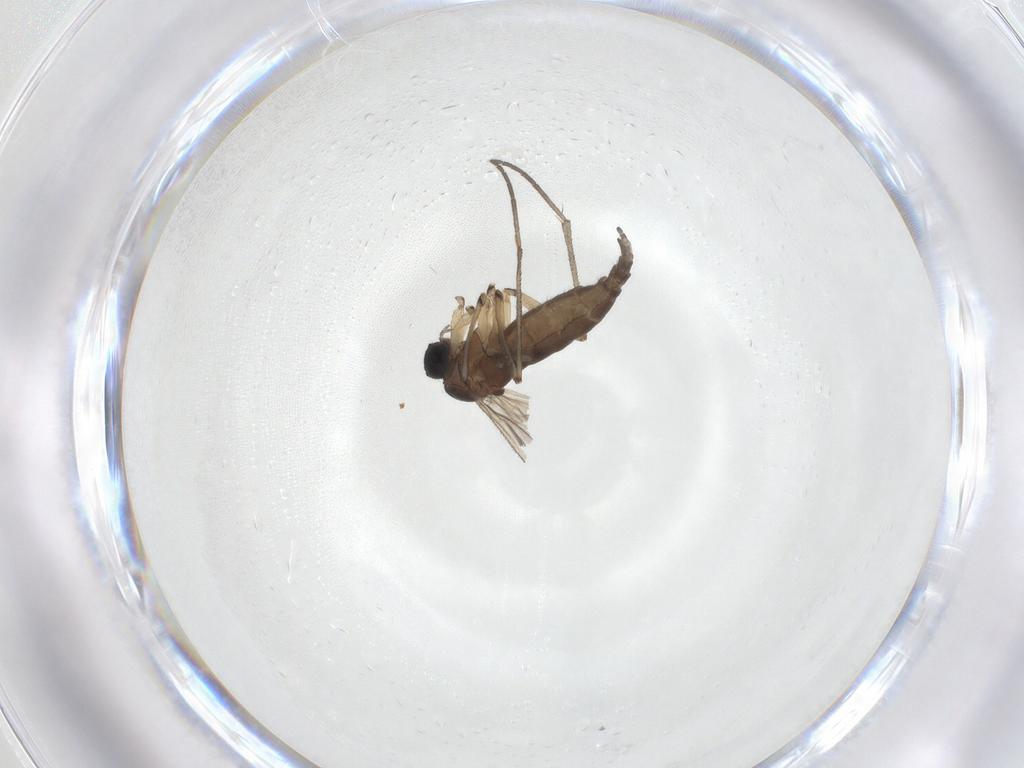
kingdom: Animalia
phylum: Arthropoda
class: Insecta
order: Diptera
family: Sciaridae
